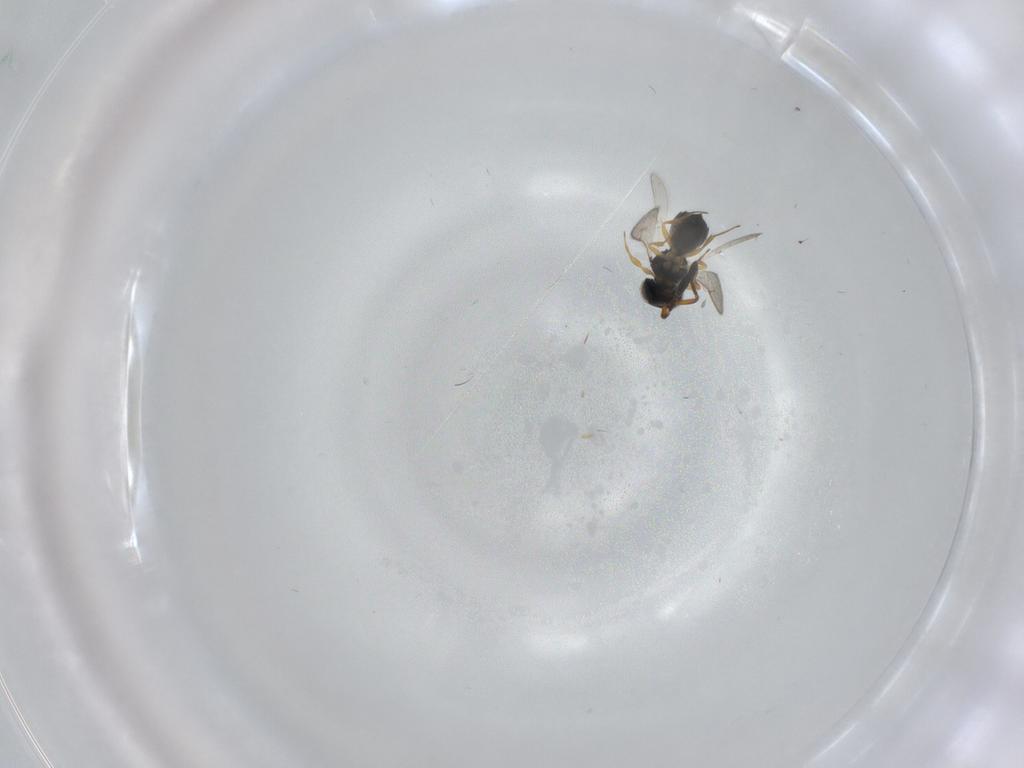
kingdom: Animalia
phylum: Arthropoda
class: Insecta
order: Hymenoptera
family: Scelionidae
